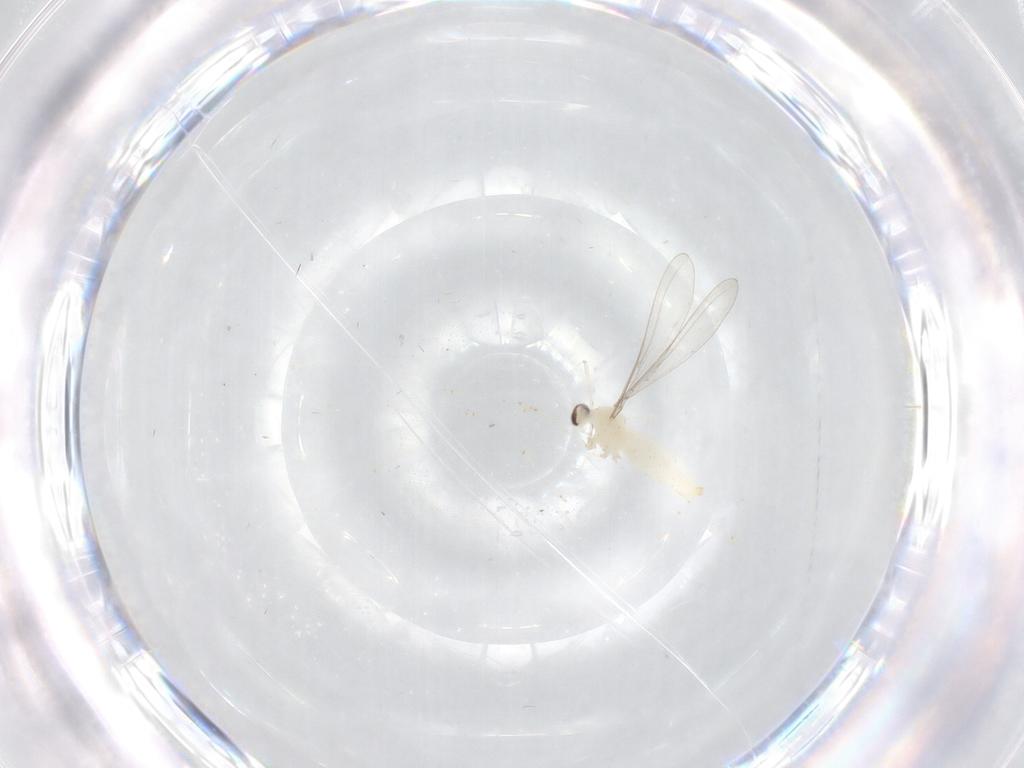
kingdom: Animalia
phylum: Arthropoda
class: Insecta
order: Diptera
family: Cecidomyiidae
